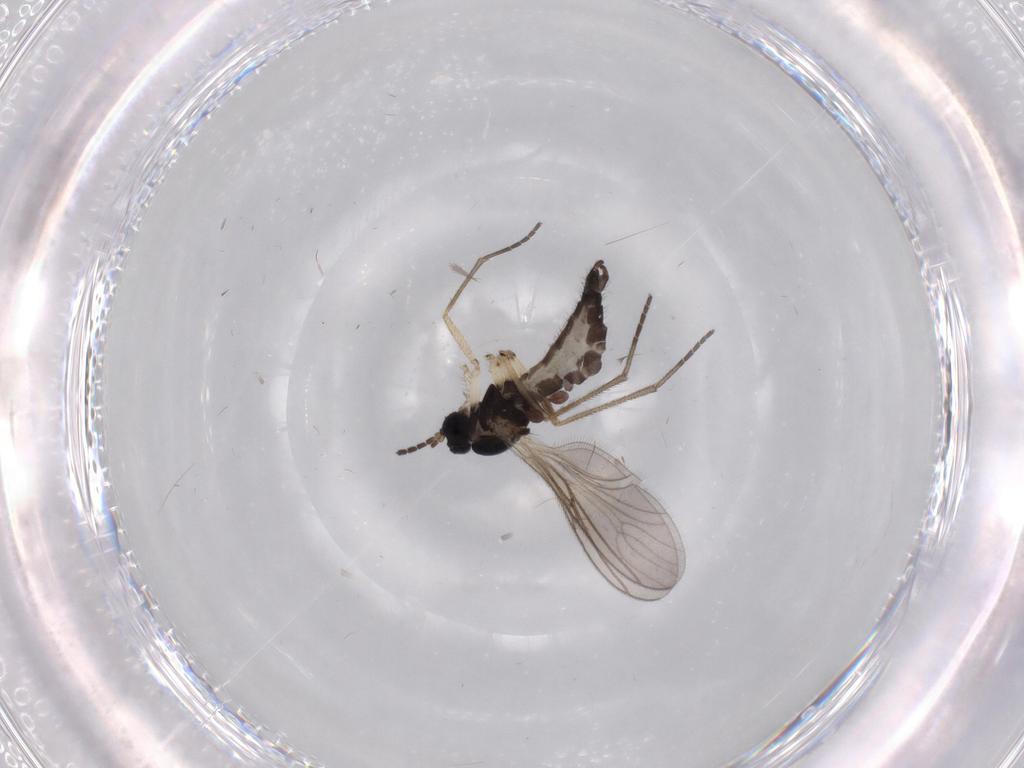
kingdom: Animalia
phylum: Arthropoda
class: Insecta
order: Diptera
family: Sciaridae
